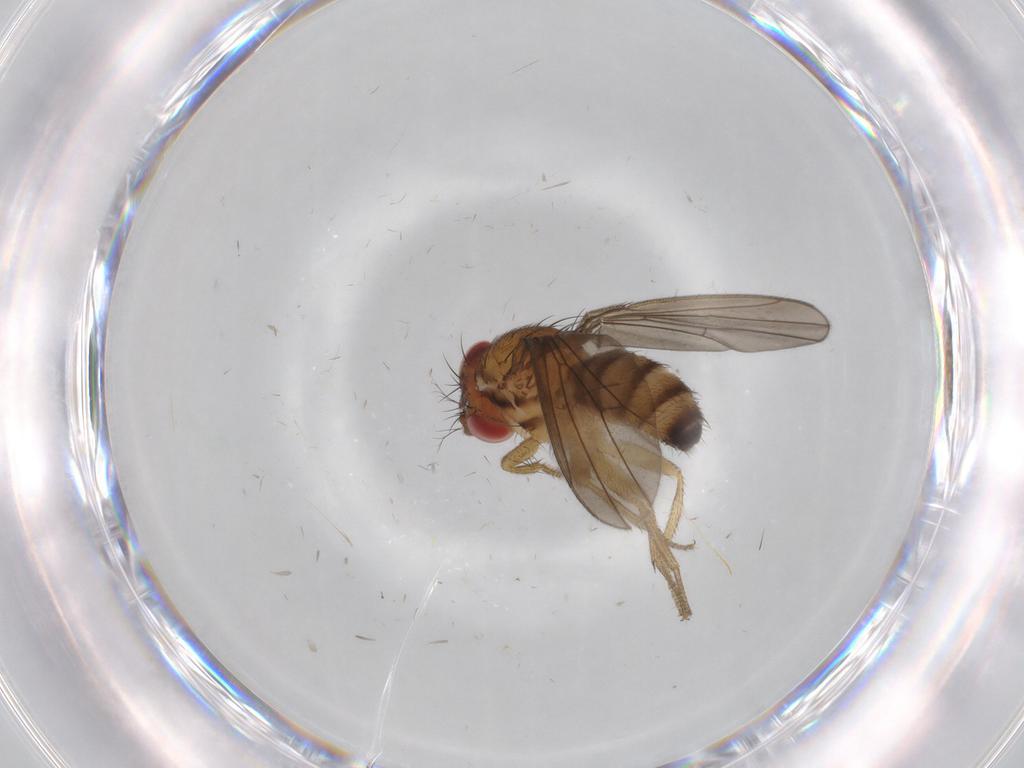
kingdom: Animalia
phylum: Arthropoda
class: Insecta
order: Diptera
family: Drosophilidae
